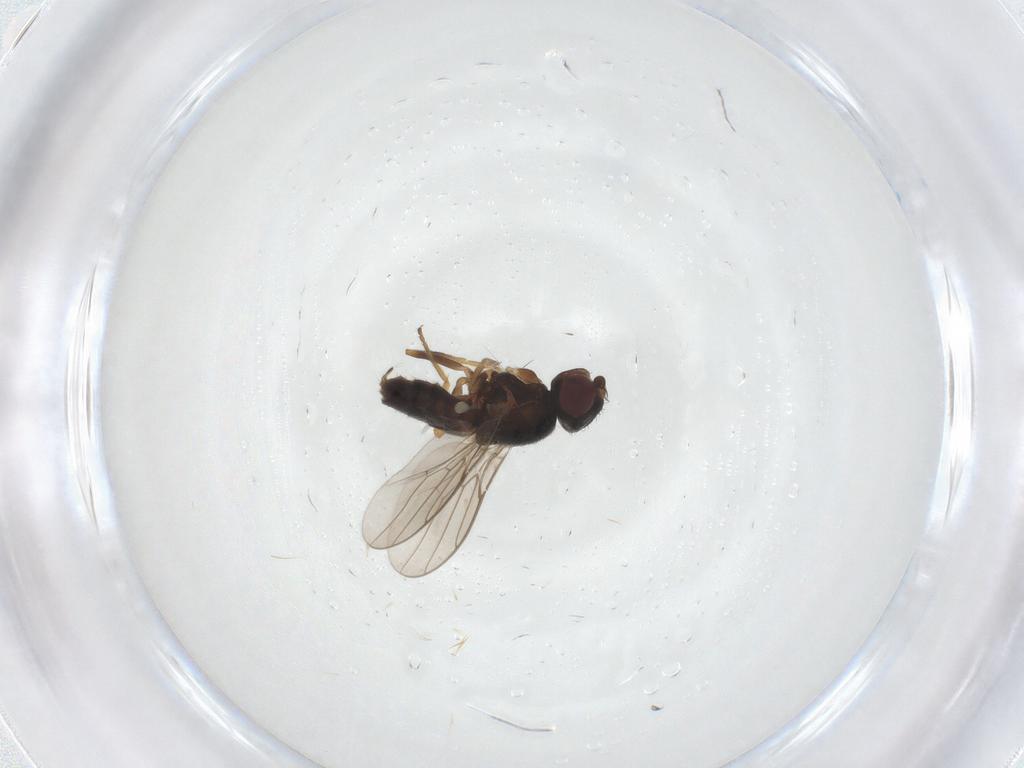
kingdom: Animalia
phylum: Arthropoda
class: Insecta
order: Diptera
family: Chloropidae
